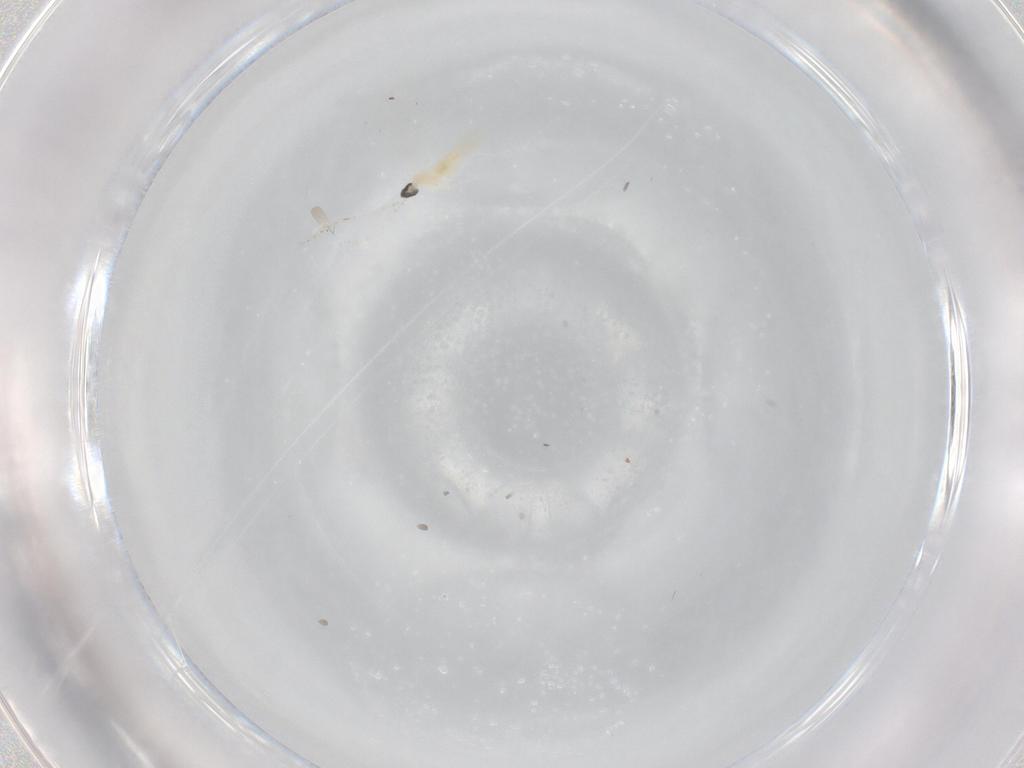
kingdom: Animalia
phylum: Arthropoda
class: Insecta
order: Diptera
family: Cecidomyiidae
